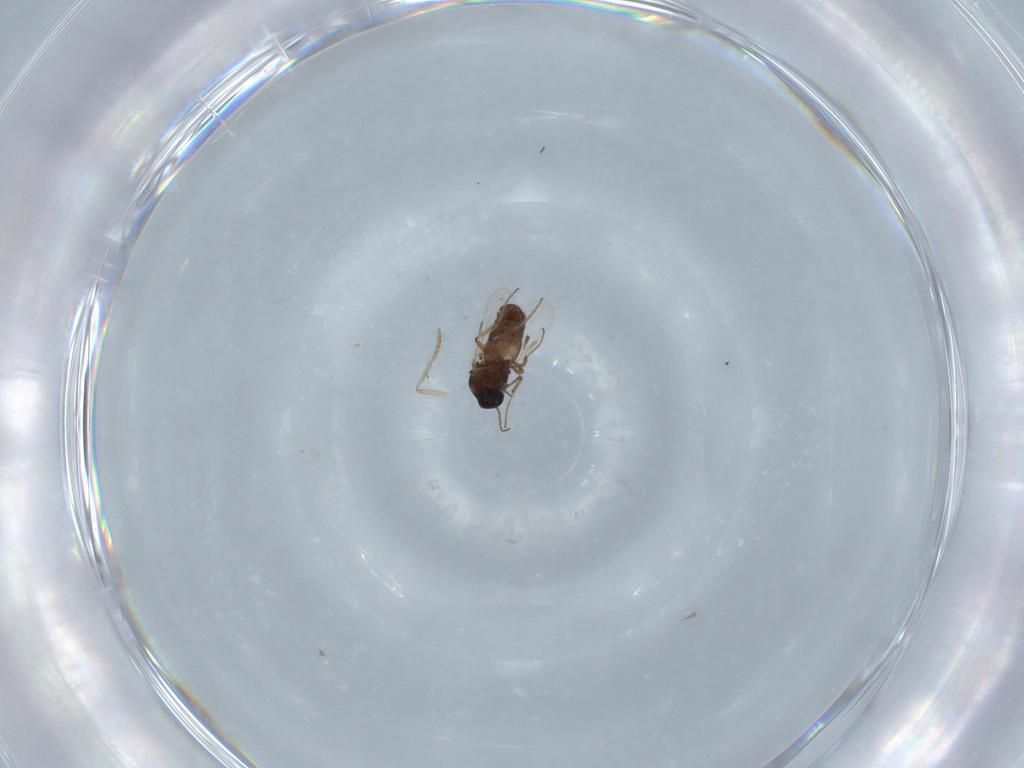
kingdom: Animalia
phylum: Arthropoda
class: Insecta
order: Diptera
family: Ceratopogonidae
